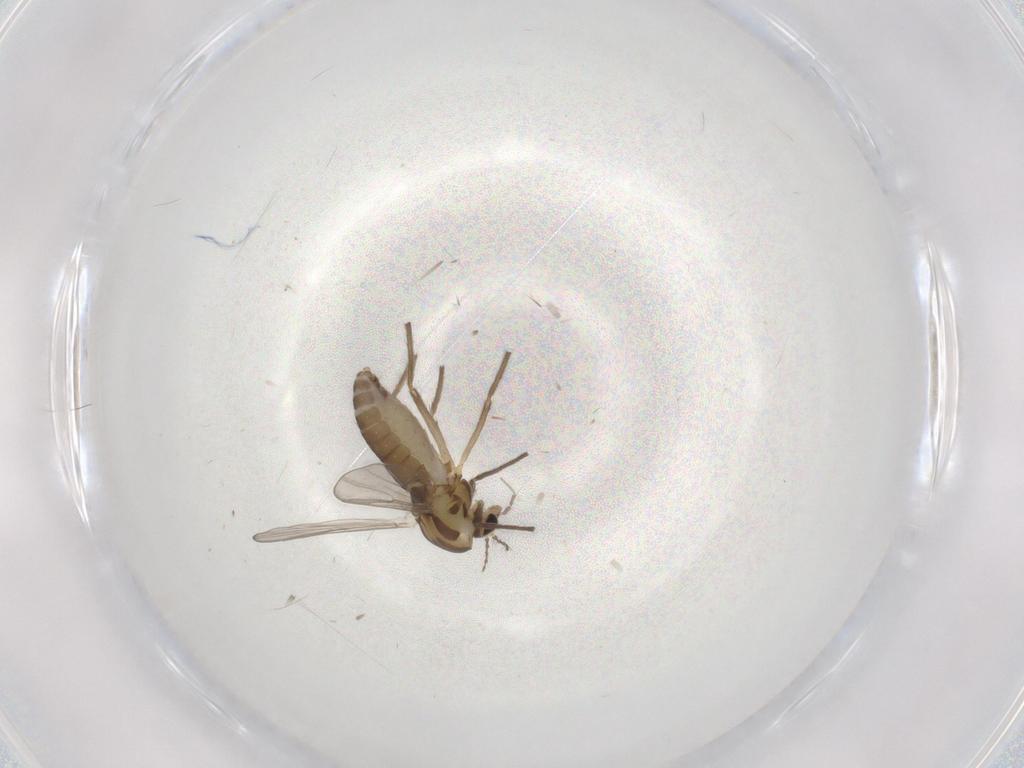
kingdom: Animalia
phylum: Arthropoda
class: Insecta
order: Diptera
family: Chironomidae
